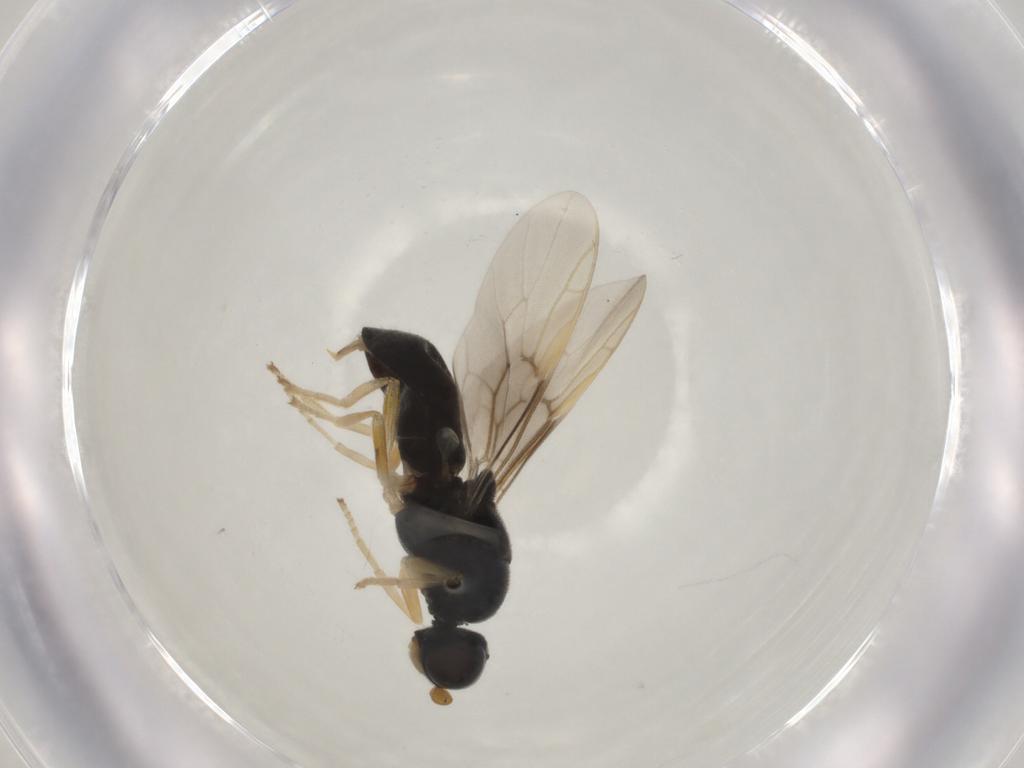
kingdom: Animalia
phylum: Arthropoda
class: Insecta
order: Diptera
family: Stratiomyidae
